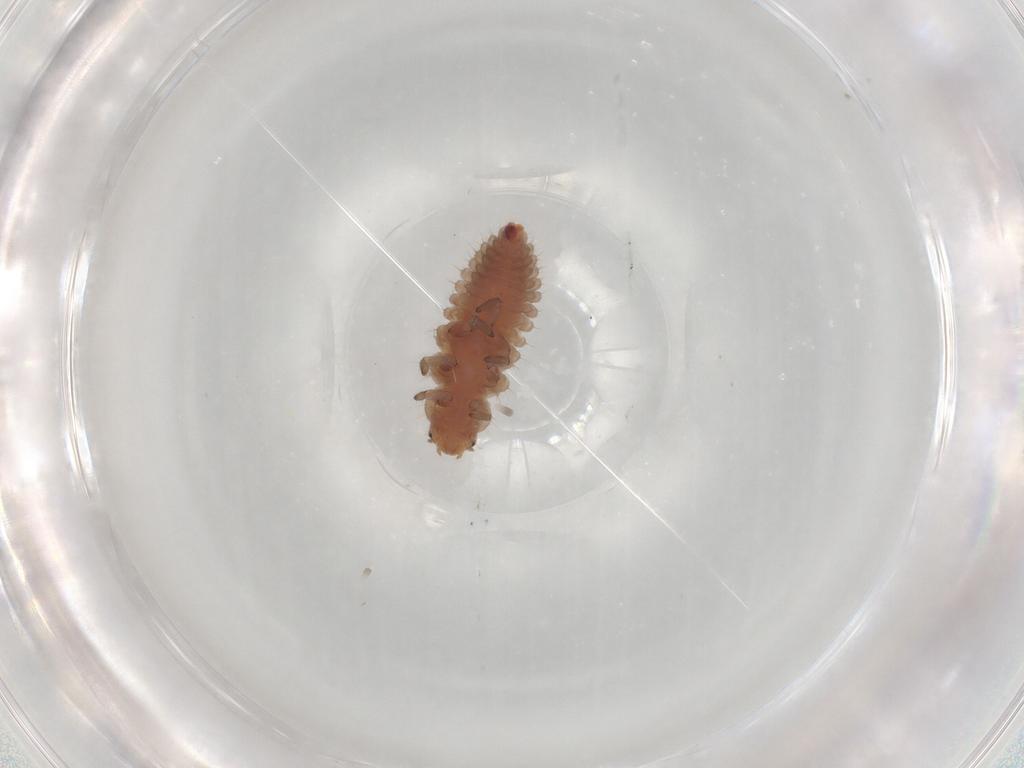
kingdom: Animalia
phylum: Arthropoda
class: Insecta
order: Coleoptera
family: Coccinellidae
